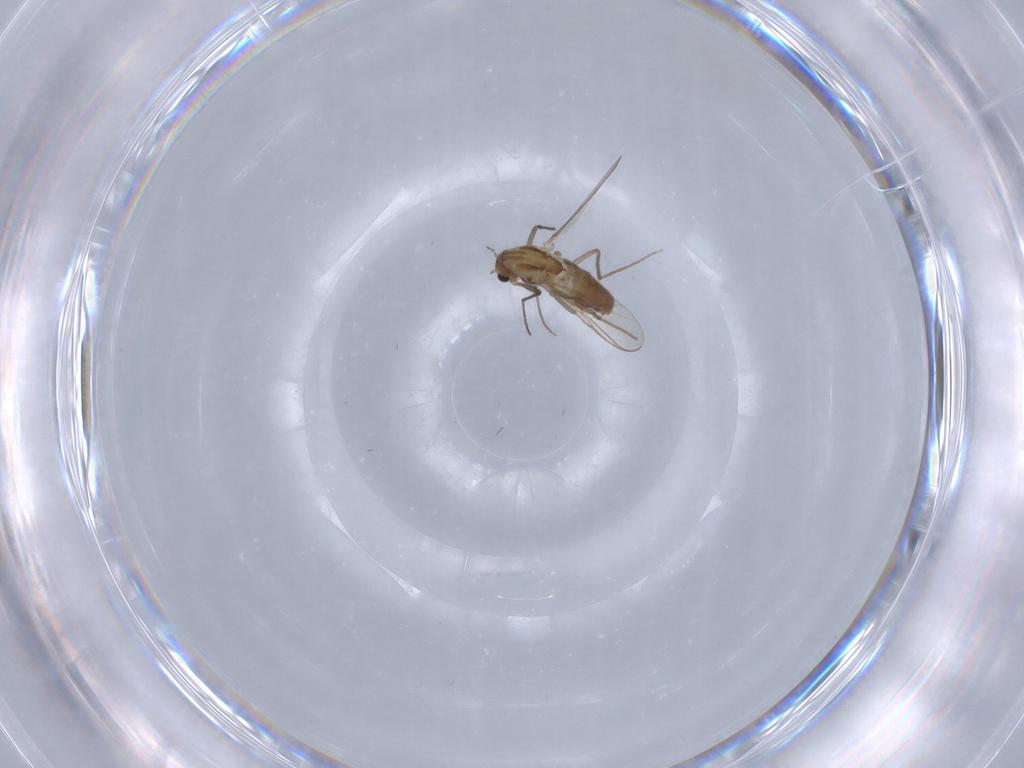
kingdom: Animalia
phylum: Arthropoda
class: Insecta
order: Diptera
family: Chironomidae
